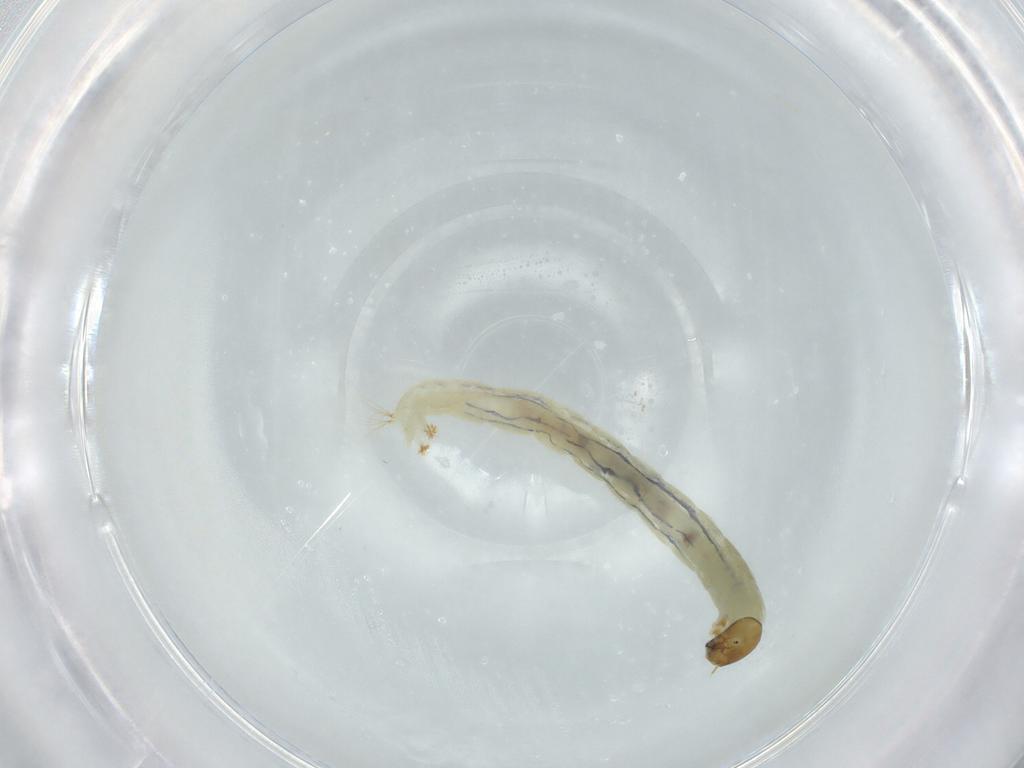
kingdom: Animalia
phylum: Arthropoda
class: Insecta
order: Diptera
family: Chironomidae
